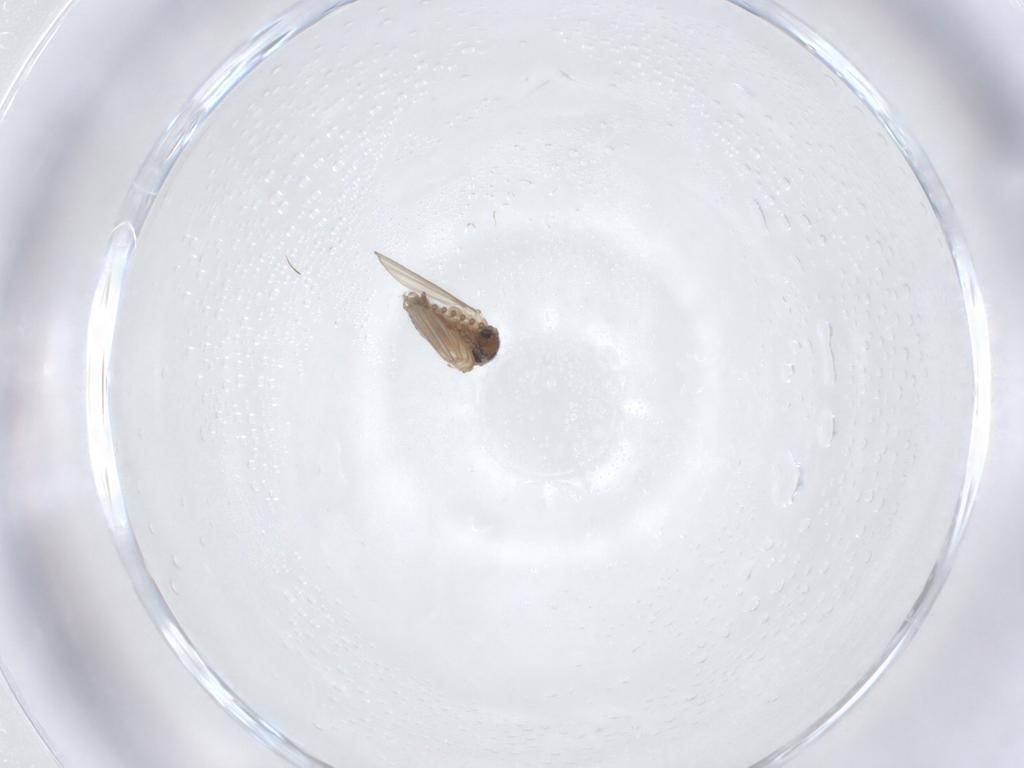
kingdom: Animalia
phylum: Arthropoda
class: Insecta
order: Diptera
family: Psychodidae
